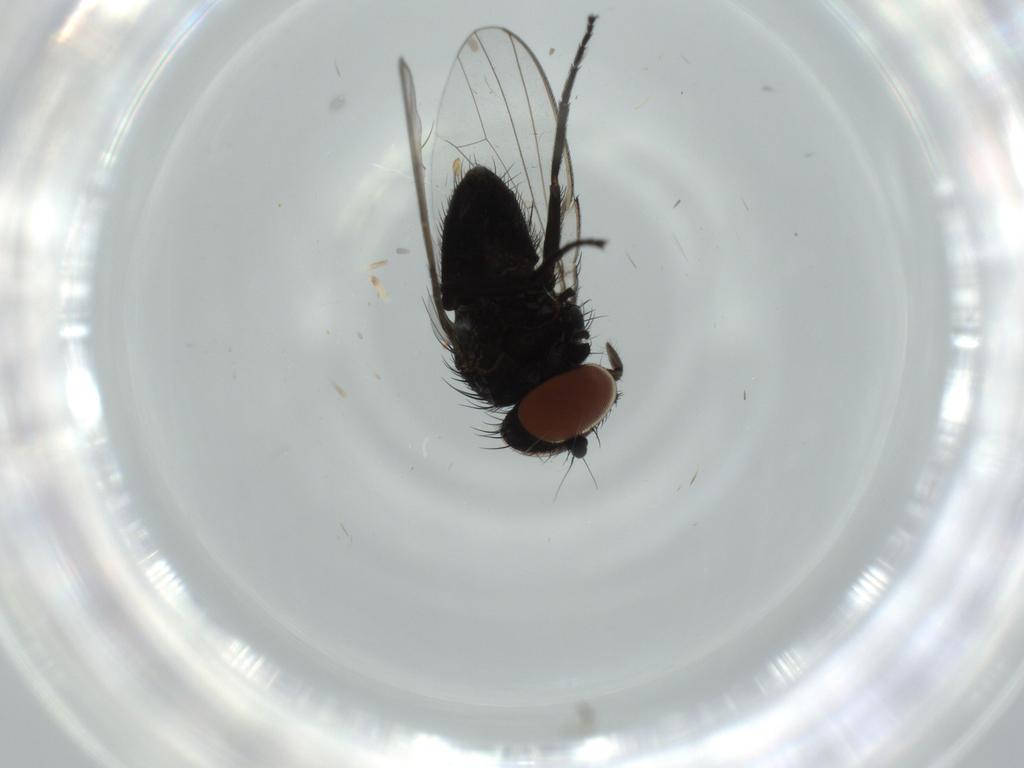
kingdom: Animalia
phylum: Arthropoda
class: Insecta
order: Diptera
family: Milichiidae
